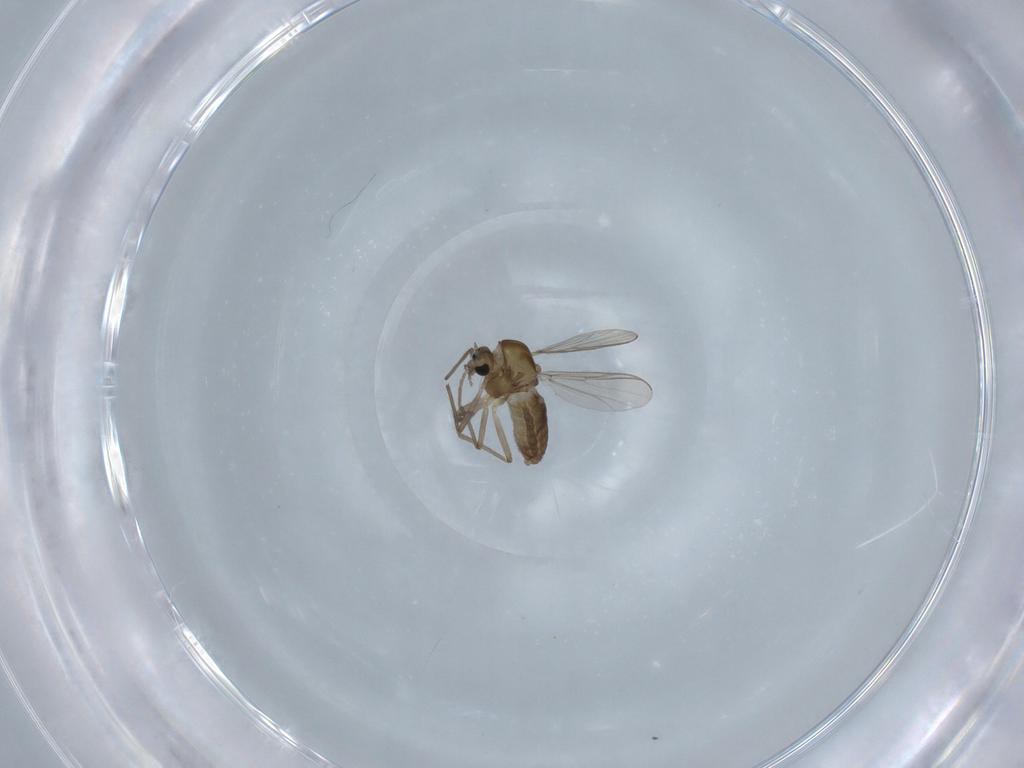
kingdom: Animalia
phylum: Arthropoda
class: Insecta
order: Diptera
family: Chironomidae
